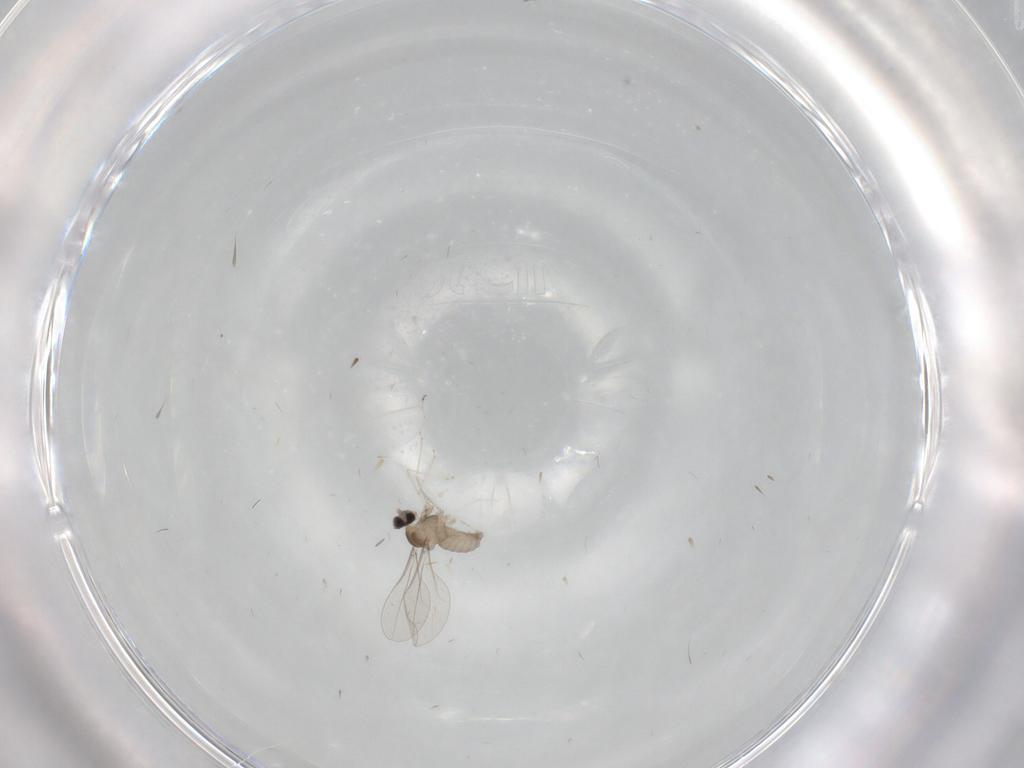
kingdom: Animalia
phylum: Arthropoda
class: Insecta
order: Diptera
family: Cecidomyiidae
